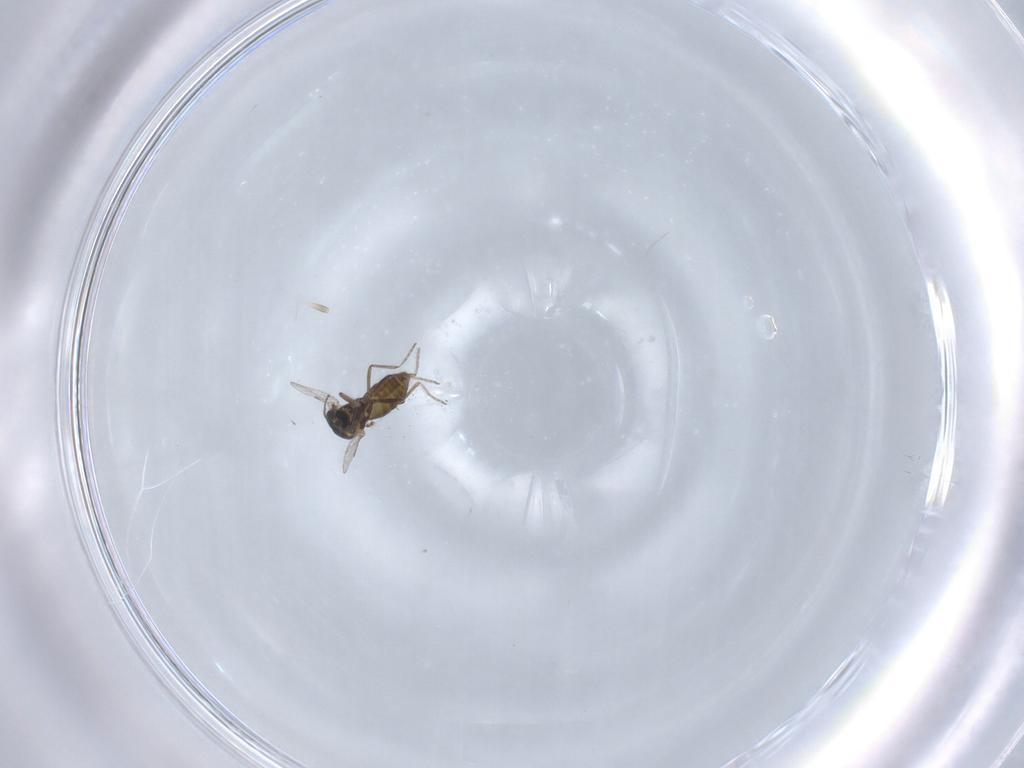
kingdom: Animalia
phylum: Arthropoda
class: Insecta
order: Diptera
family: Ceratopogonidae
